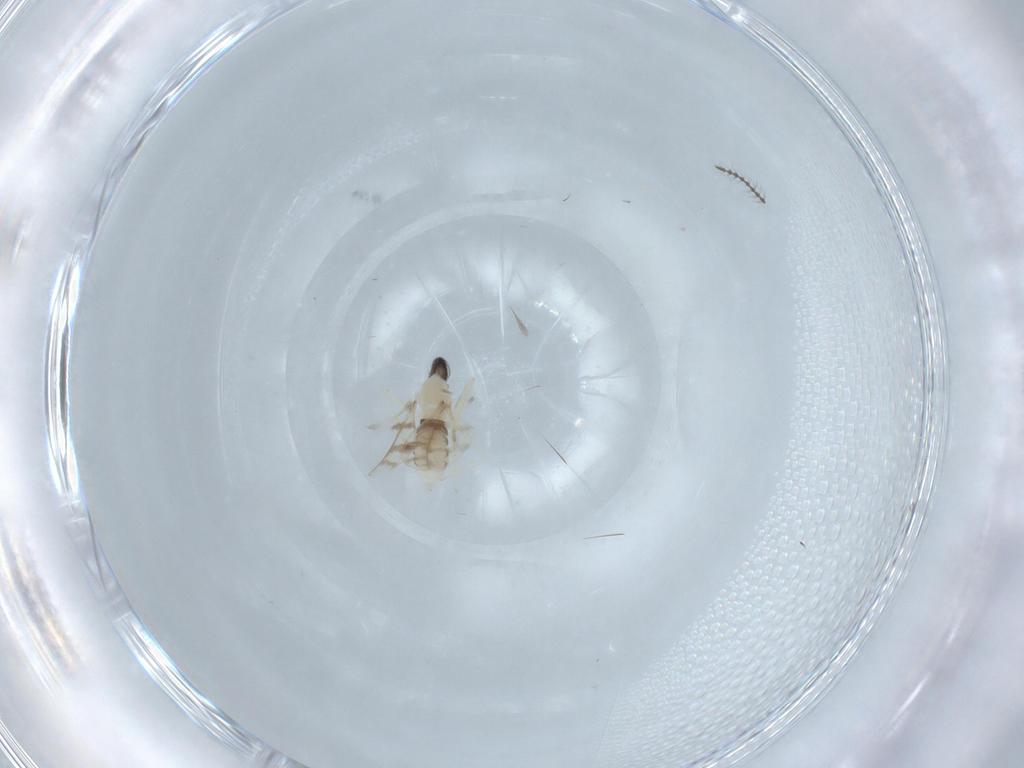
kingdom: Animalia
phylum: Arthropoda
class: Insecta
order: Diptera
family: Cecidomyiidae
